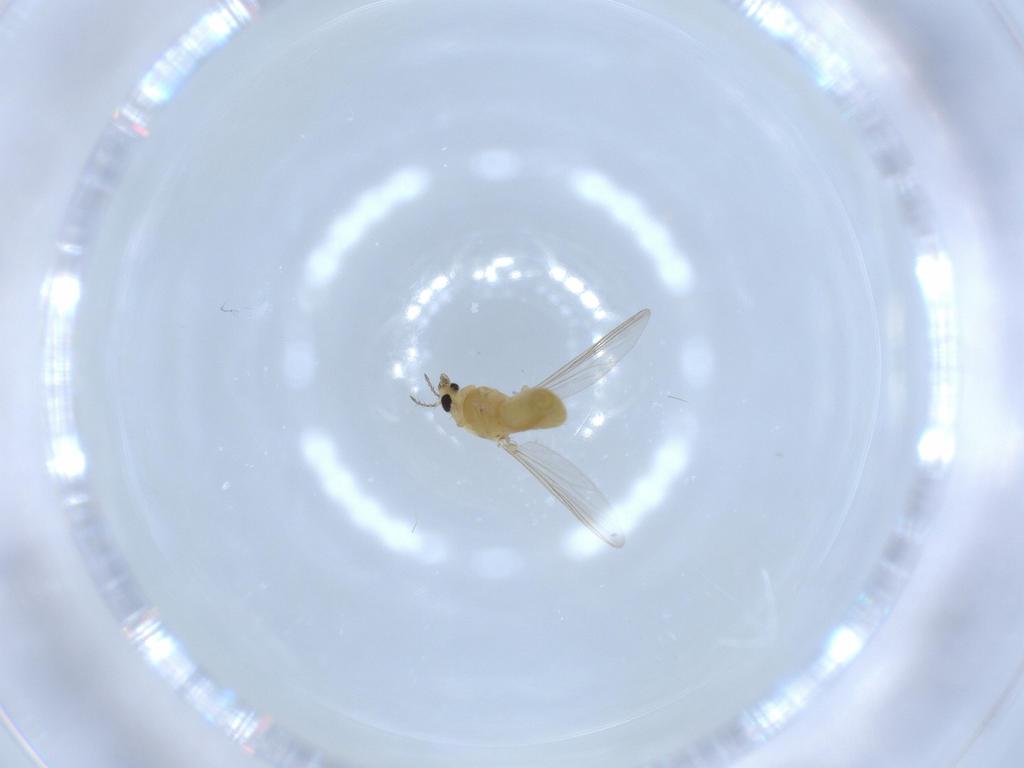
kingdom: Animalia
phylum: Arthropoda
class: Insecta
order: Diptera
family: Chironomidae
